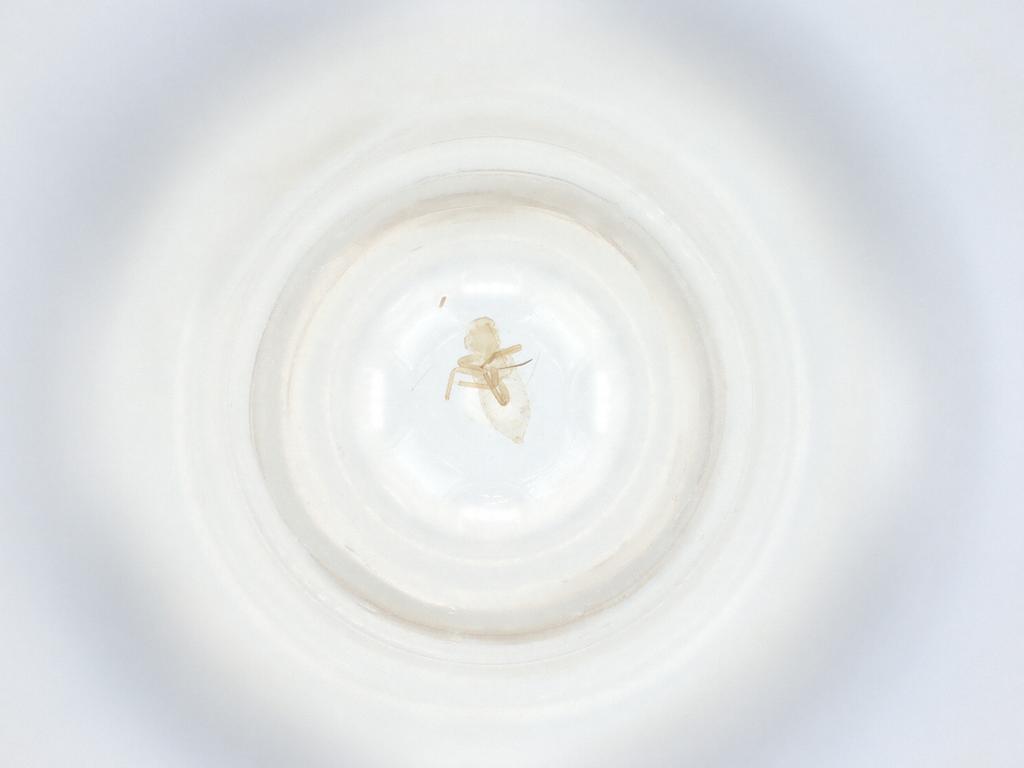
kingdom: Animalia
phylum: Arthropoda
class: Insecta
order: Hemiptera
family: Miridae
